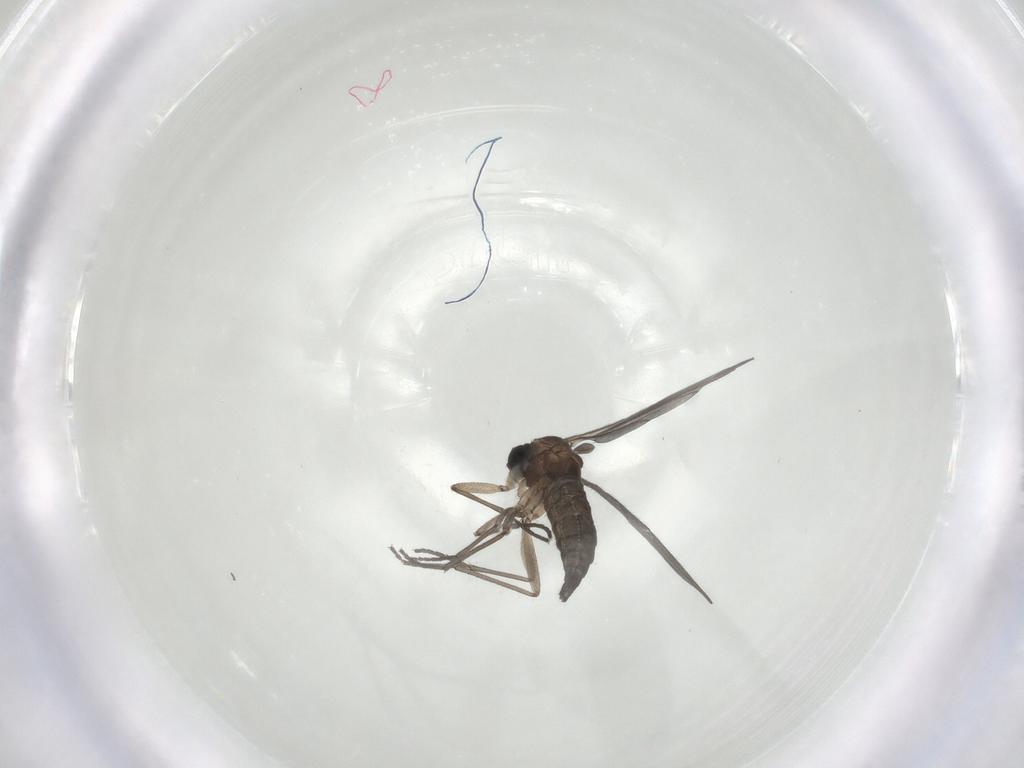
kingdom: Animalia
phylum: Arthropoda
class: Insecta
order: Diptera
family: Sciaridae
